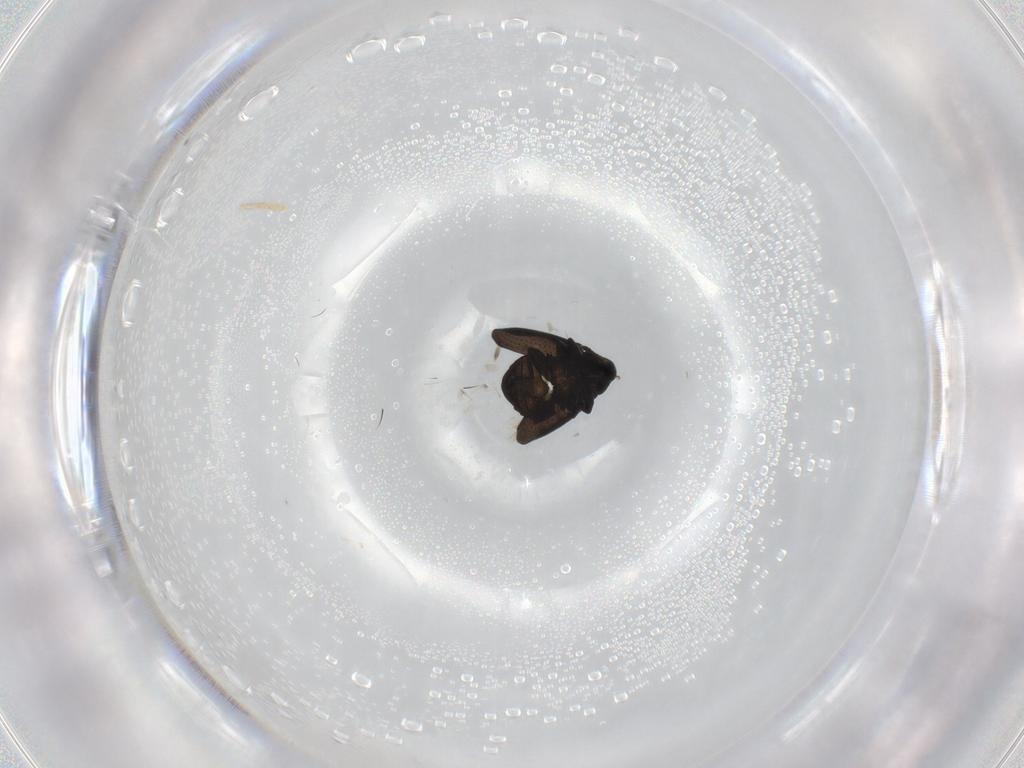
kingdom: Animalia
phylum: Arthropoda
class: Insecta
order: Coleoptera
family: Curculionidae
